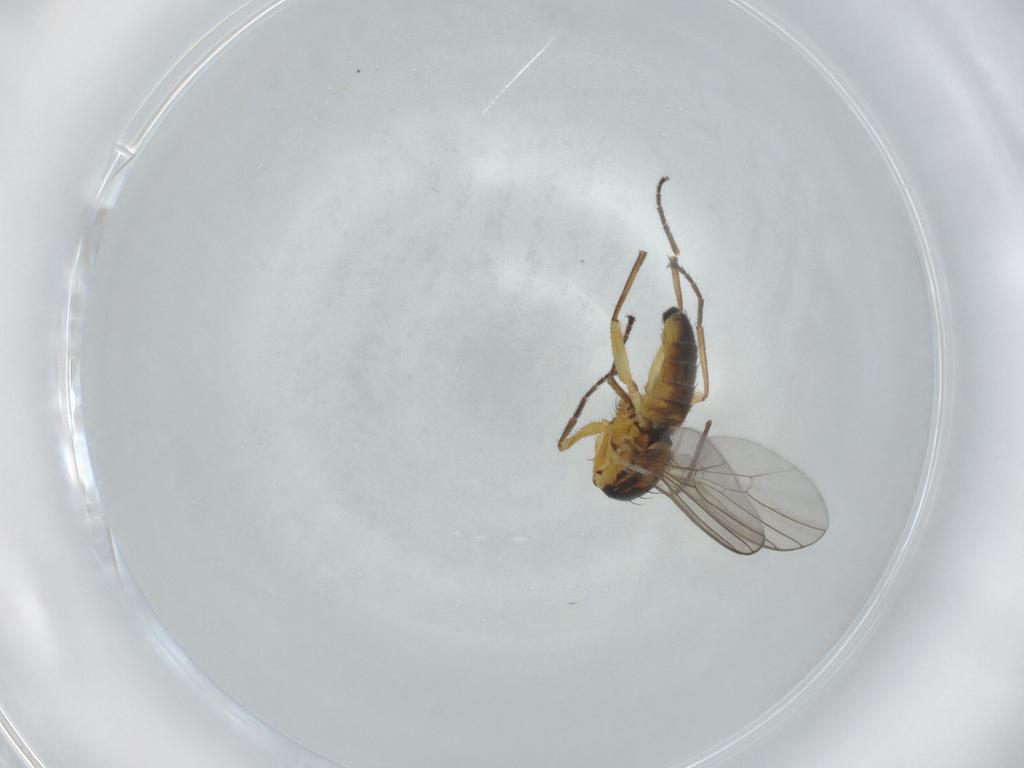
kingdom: Animalia
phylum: Arthropoda
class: Insecta
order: Diptera
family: Agromyzidae
